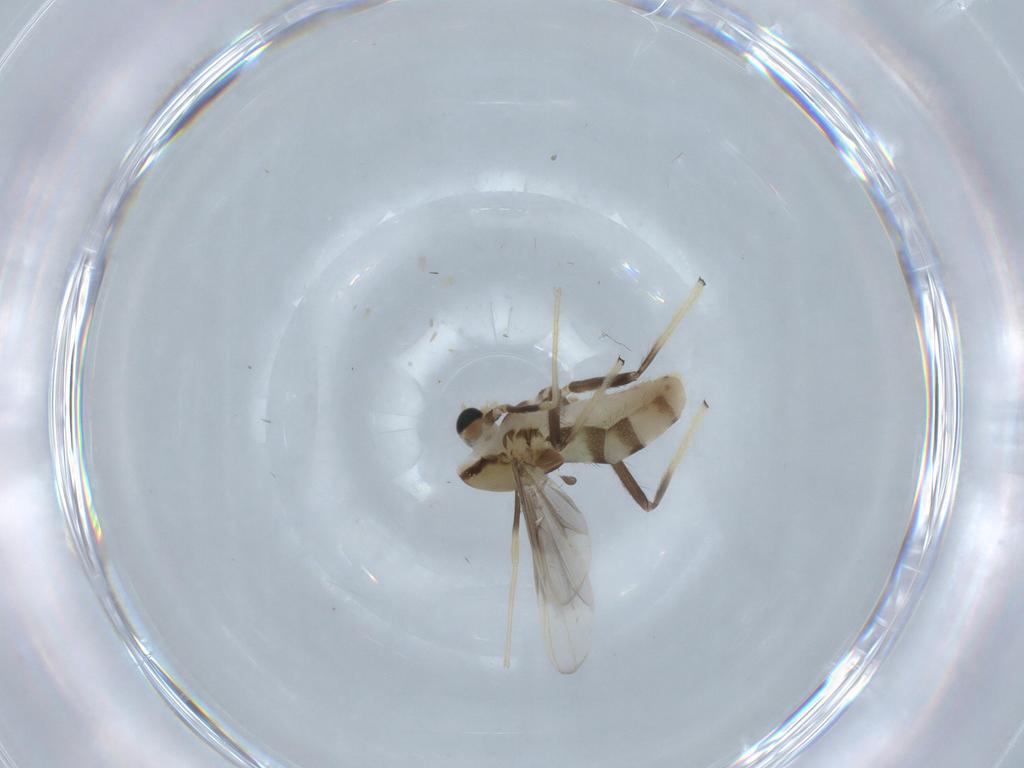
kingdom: Animalia
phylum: Arthropoda
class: Insecta
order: Diptera
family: Chironomidae
